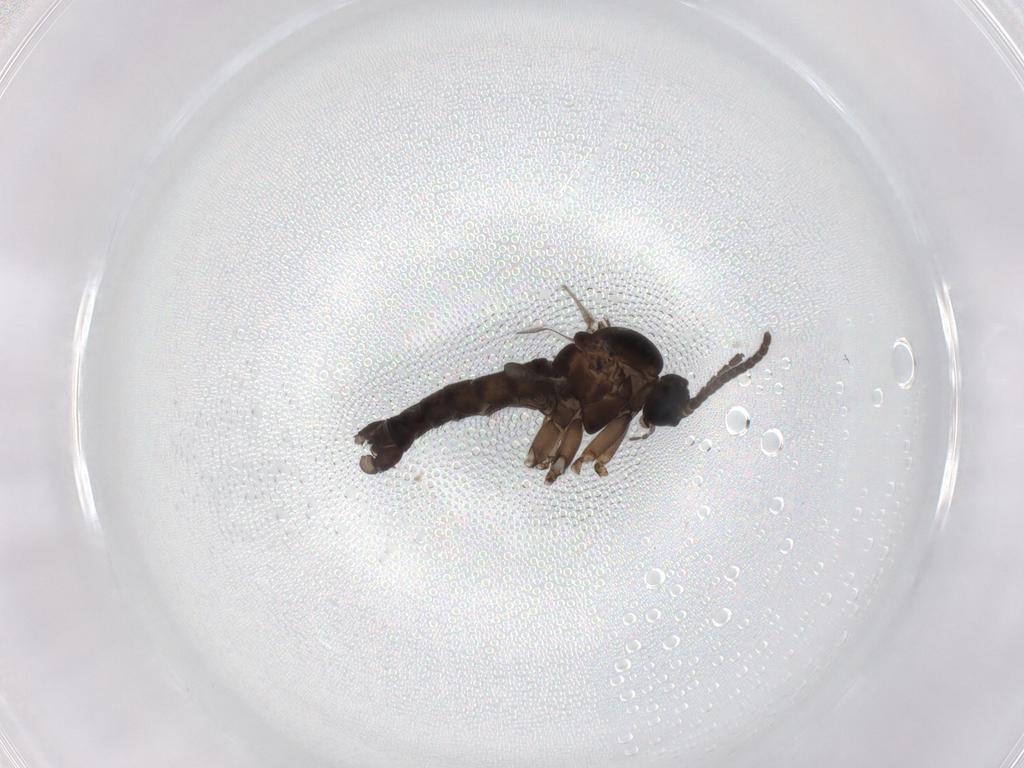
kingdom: Animalia
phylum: Arthropoda
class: Insecta
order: Diptera
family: Sciaridae
